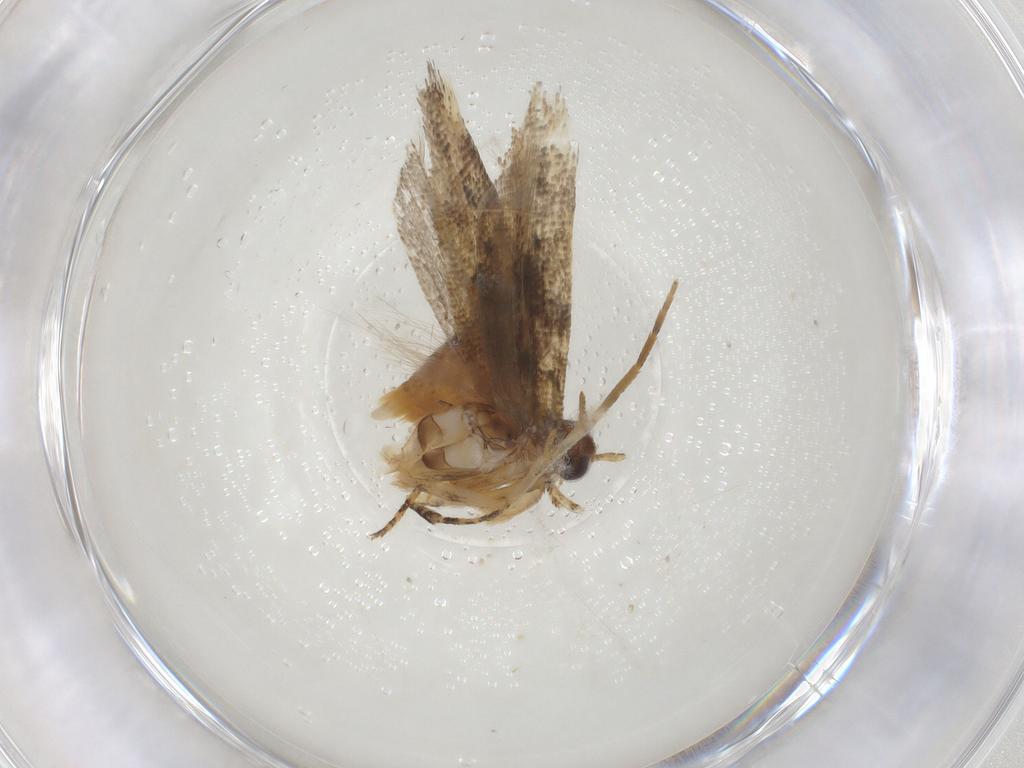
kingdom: Animalia
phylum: Arthropoda
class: Insecta
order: Lepidoptera
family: Gelechiidae
